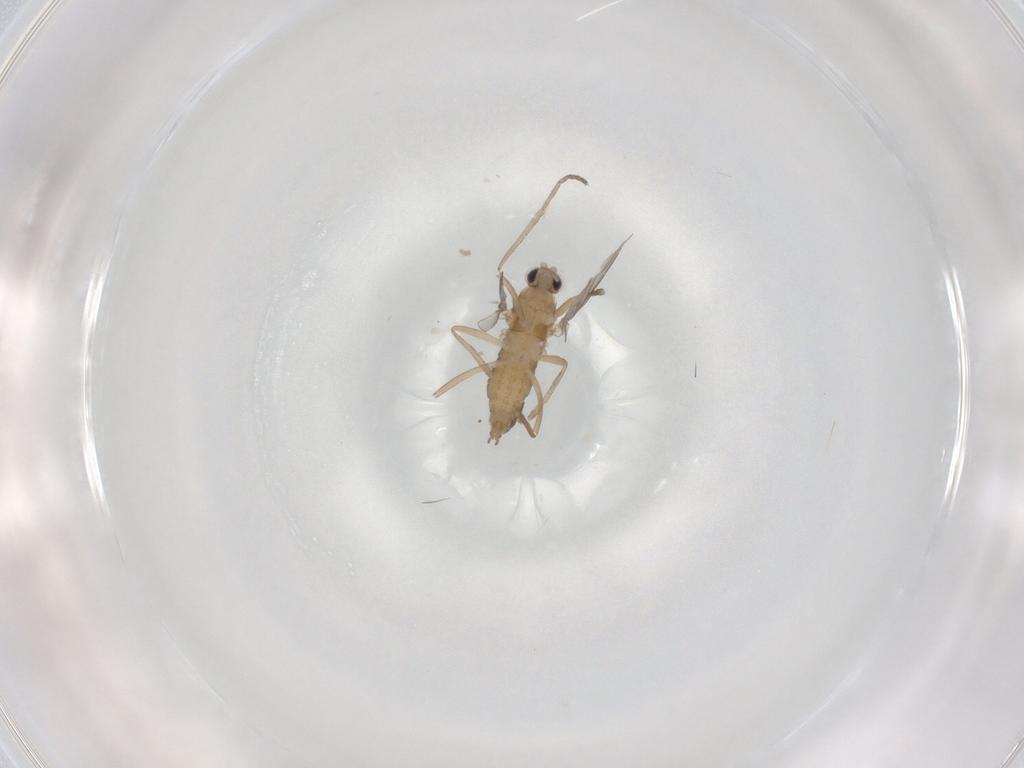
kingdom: Animalia
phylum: Arthropoda
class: Insecta
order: Diptera
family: Cecidomyiidae
